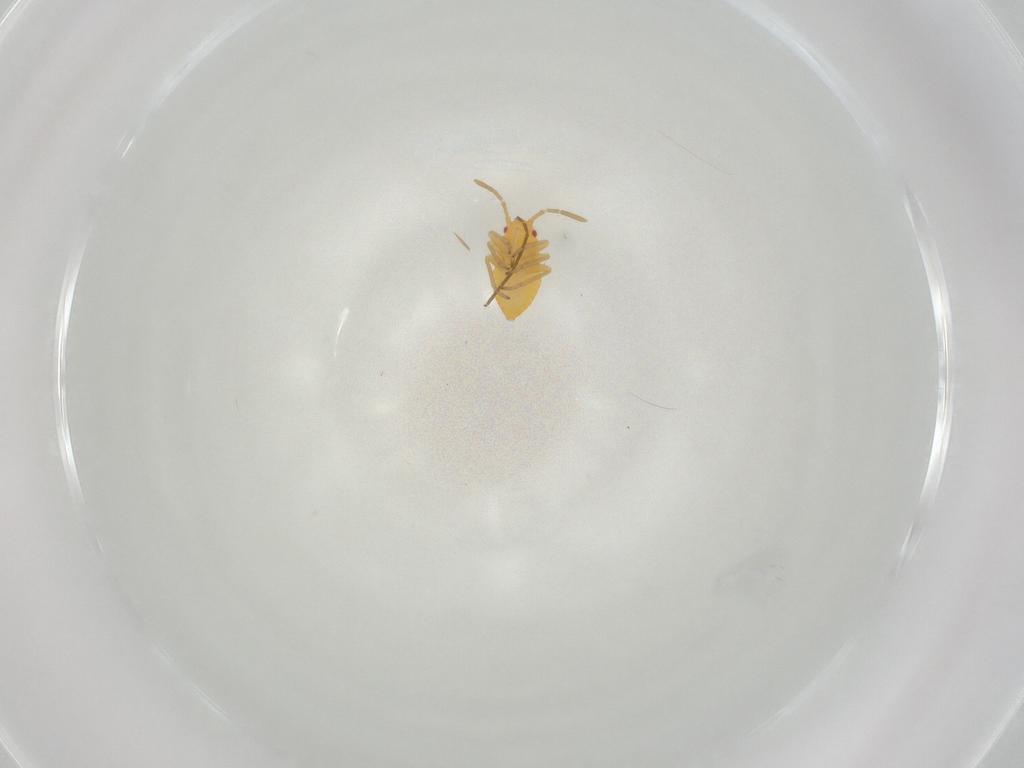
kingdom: Animalia
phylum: Arthropoda
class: Insecta
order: Hemiptera
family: Miridae
